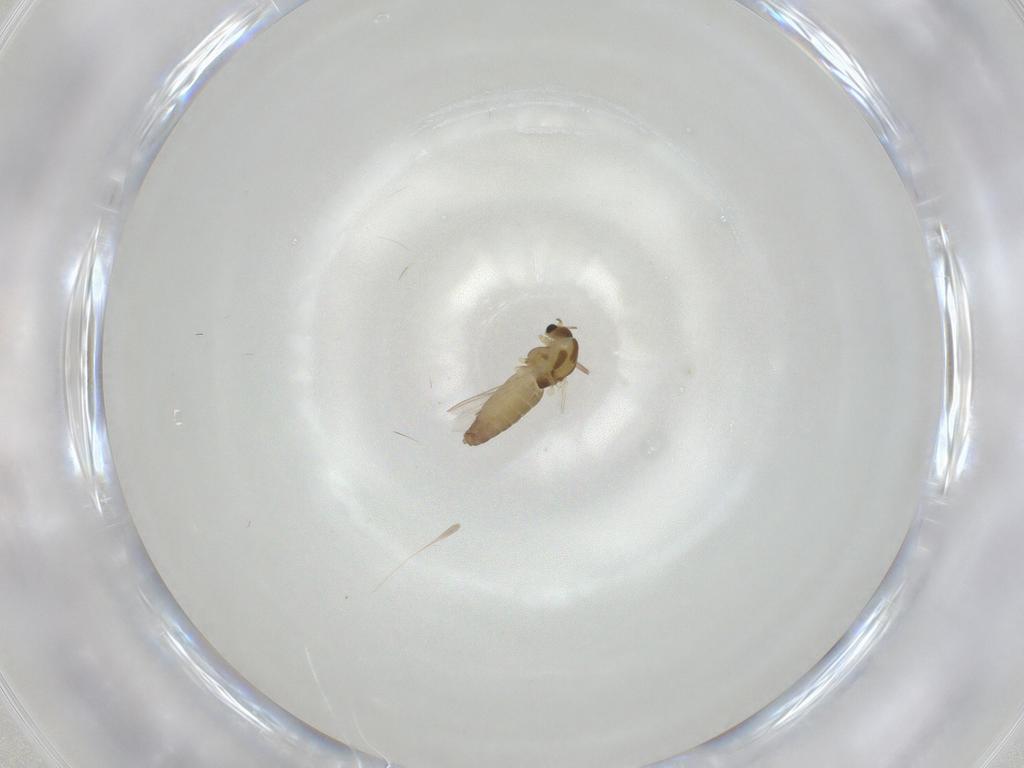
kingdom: Animalia
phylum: Arthropoda
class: Insecta
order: Diptera
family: Chironomidae
